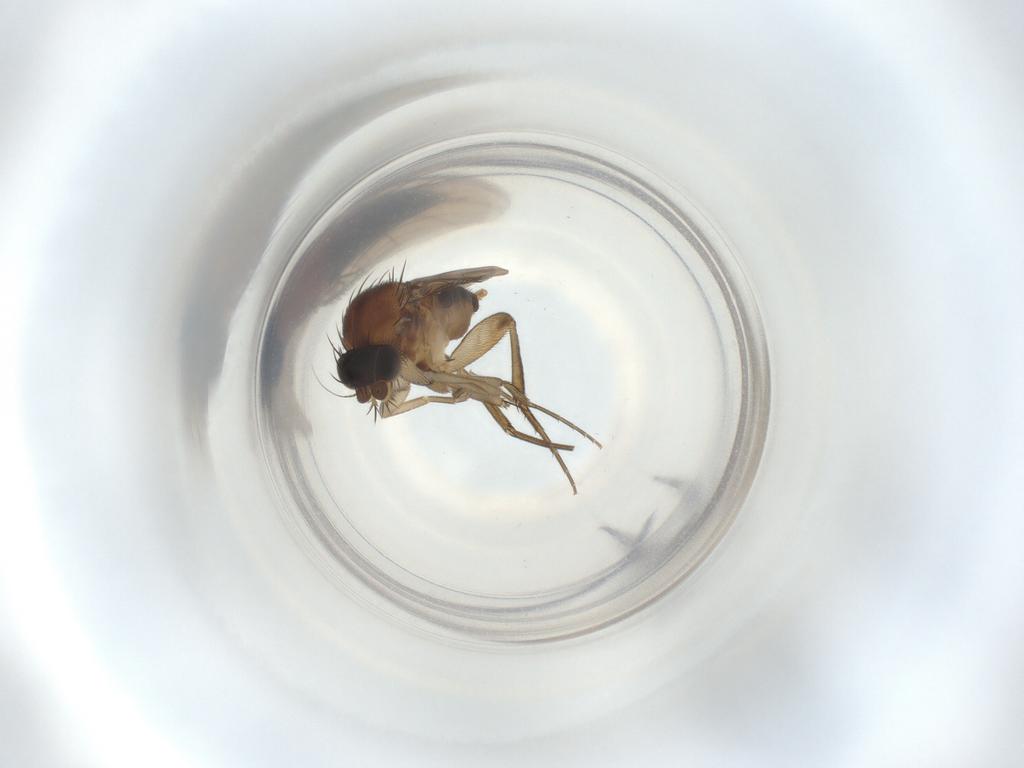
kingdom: Animalia
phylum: Arthropoda
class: Insecta
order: Diptera
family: Phoridae
